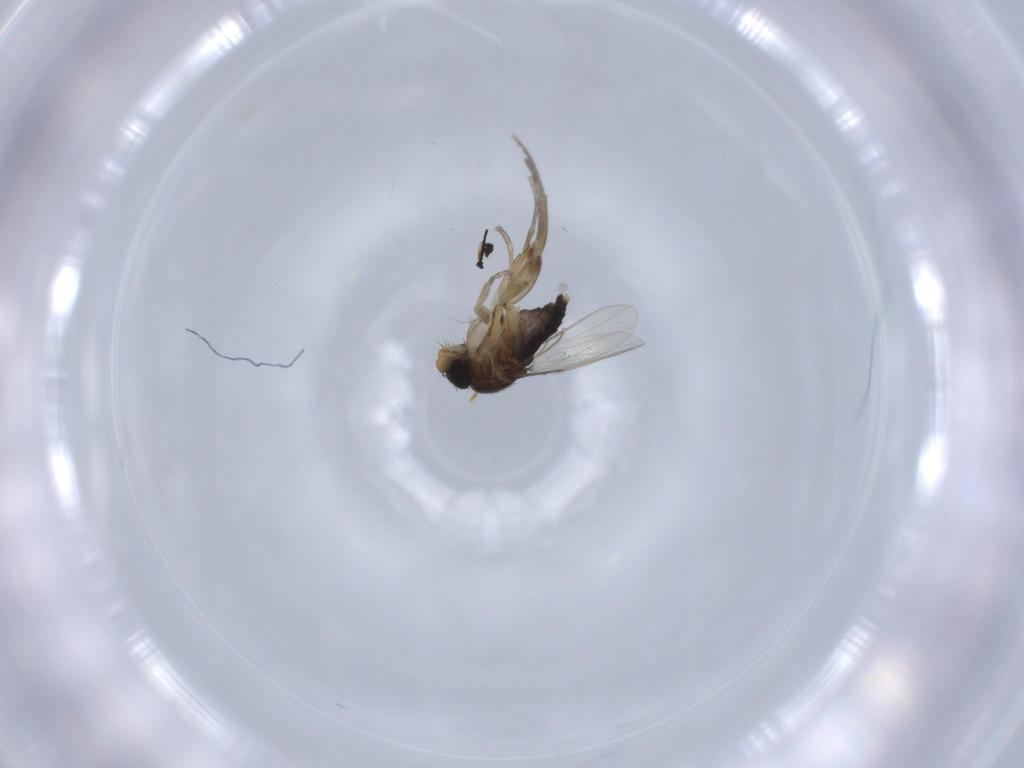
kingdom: Animalia
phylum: Arthropoda
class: Insecta
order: Diptera
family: Phoridae
